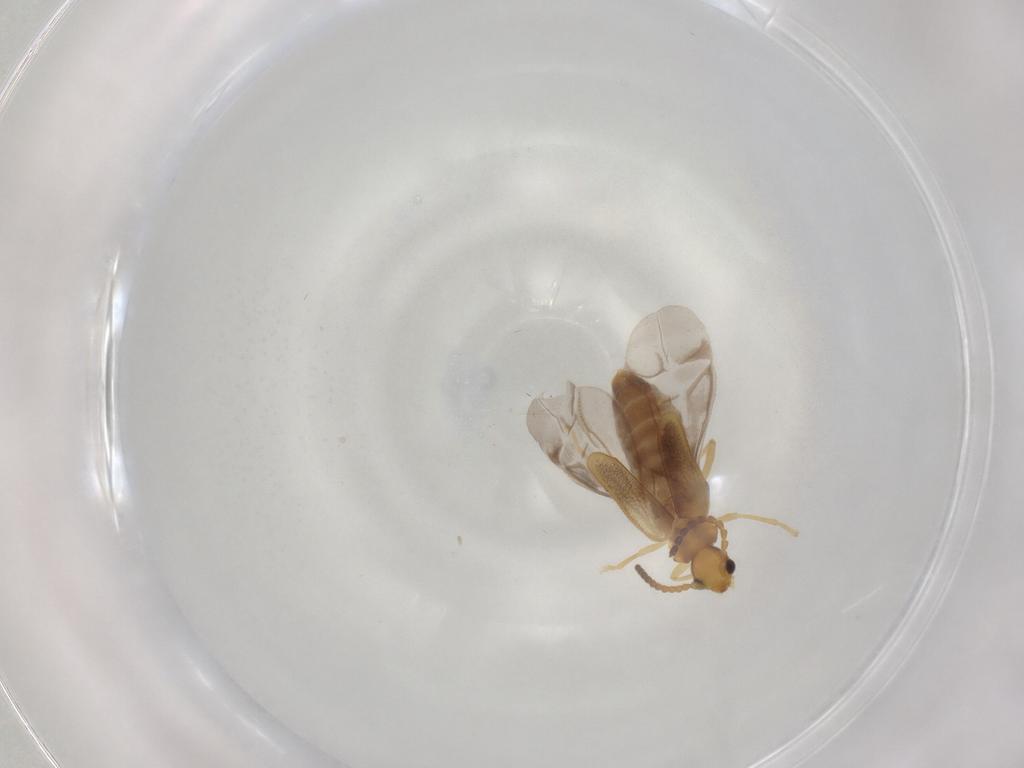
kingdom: Animalia
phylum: Arthropoda
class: Insecta
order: Coleoptera
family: Cantharidae
